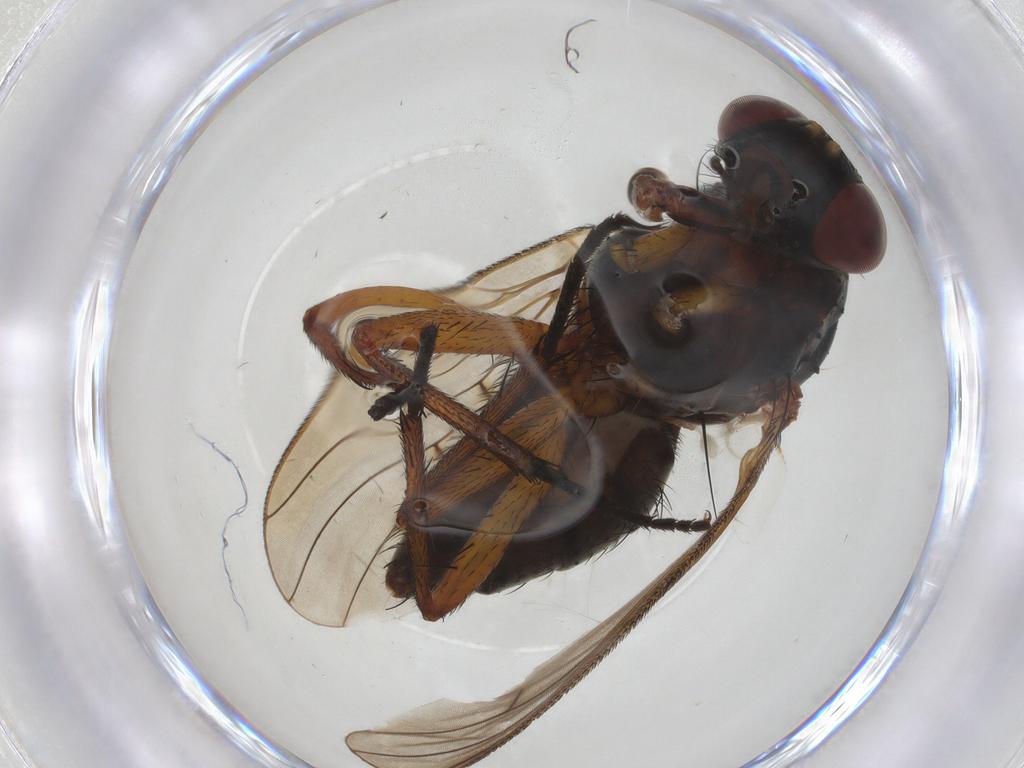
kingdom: Animalia
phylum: Arthropoda
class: Insecta
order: Diptera
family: Anthomyiidae
